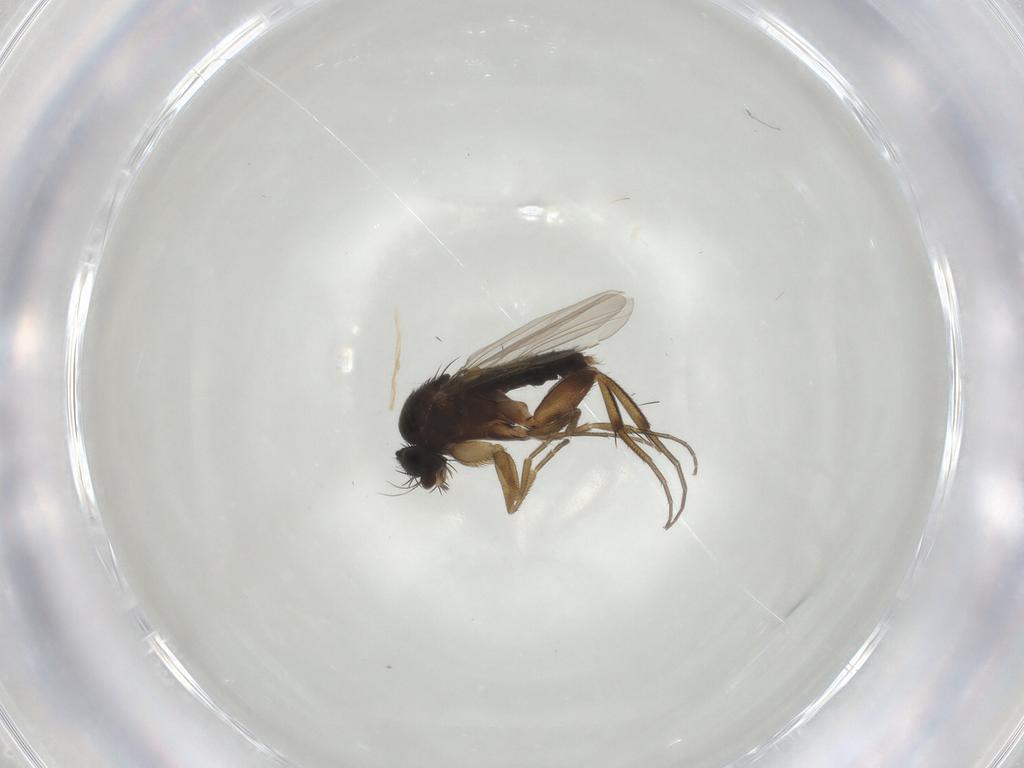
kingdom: Animalia
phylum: Arthropoda
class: Insecta
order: Diptera
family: Phoridae
